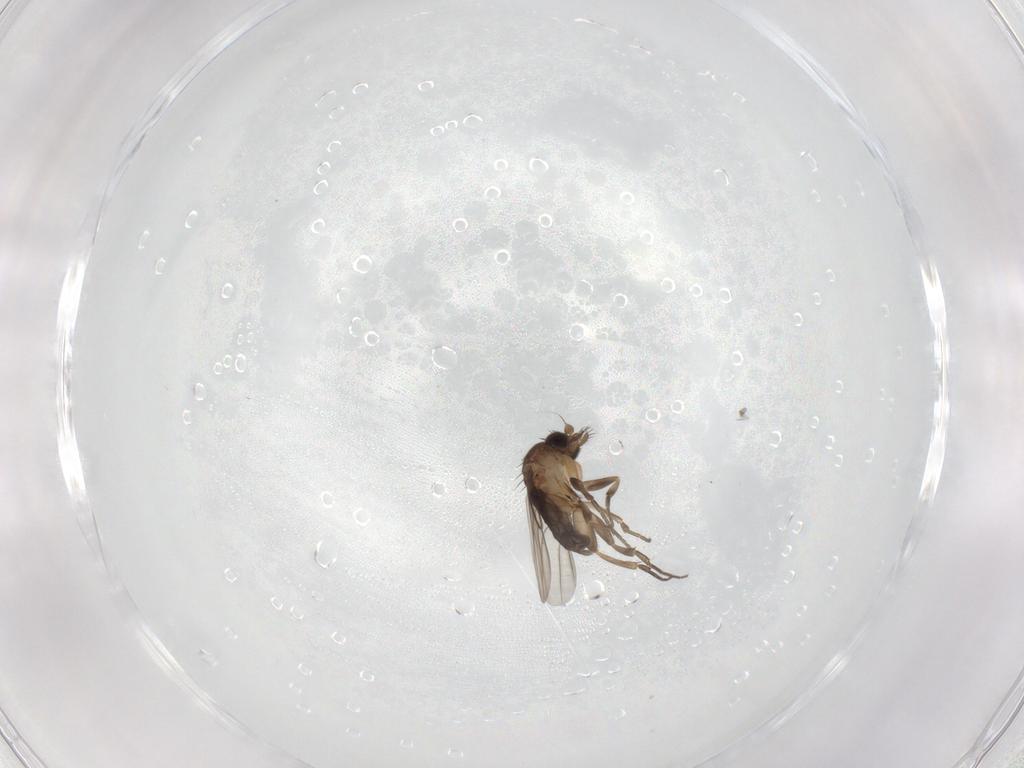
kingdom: Animalia
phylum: Arthropoda
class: Insecta
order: Diptera
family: Phoridae
